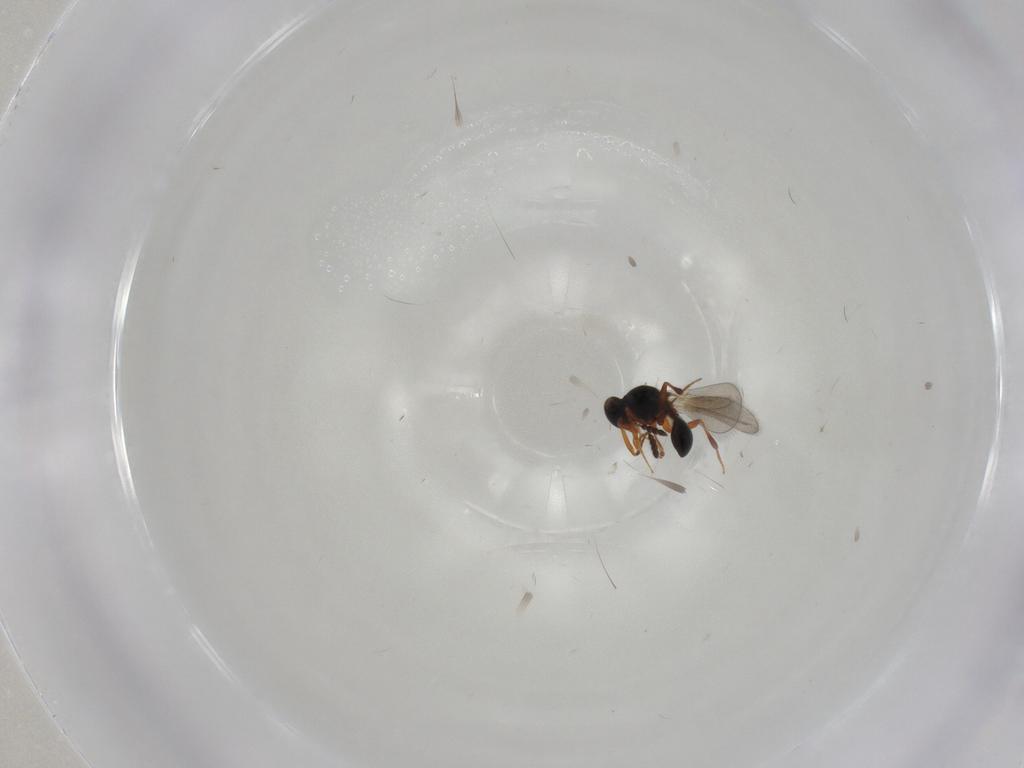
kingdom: Animalia
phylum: Arthropoda
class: Insecta
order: Hymenoptera
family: Platygastridae
